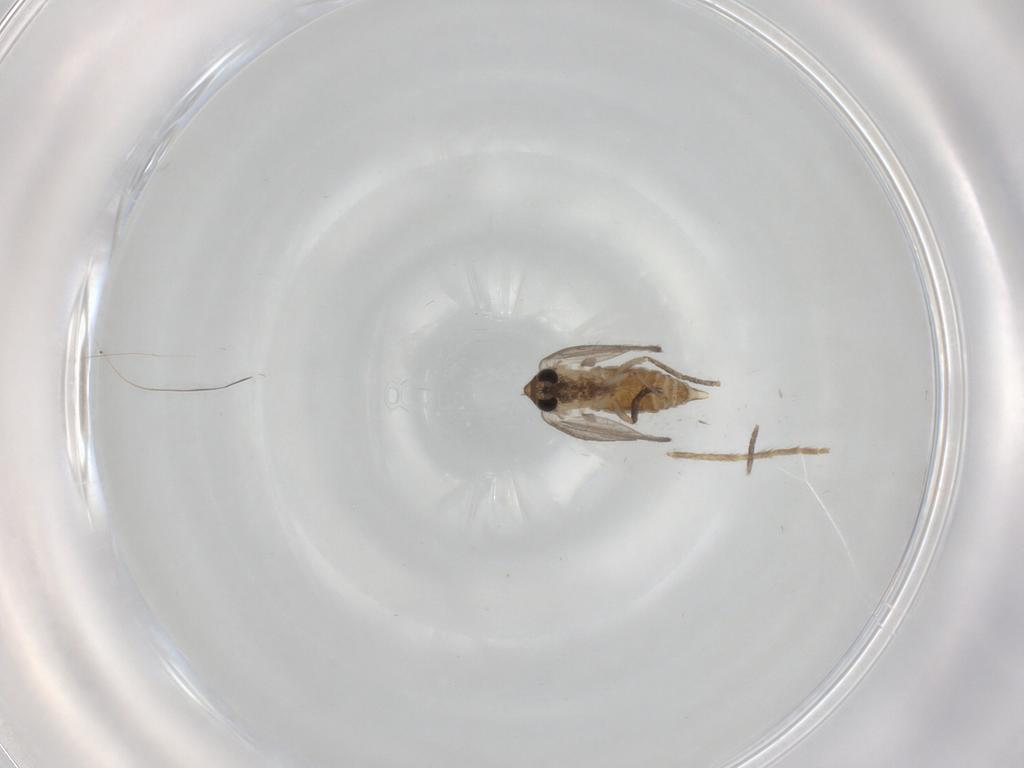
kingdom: Animalia
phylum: Arthropoda
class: Insecta
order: Diptera
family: Chironomidae
